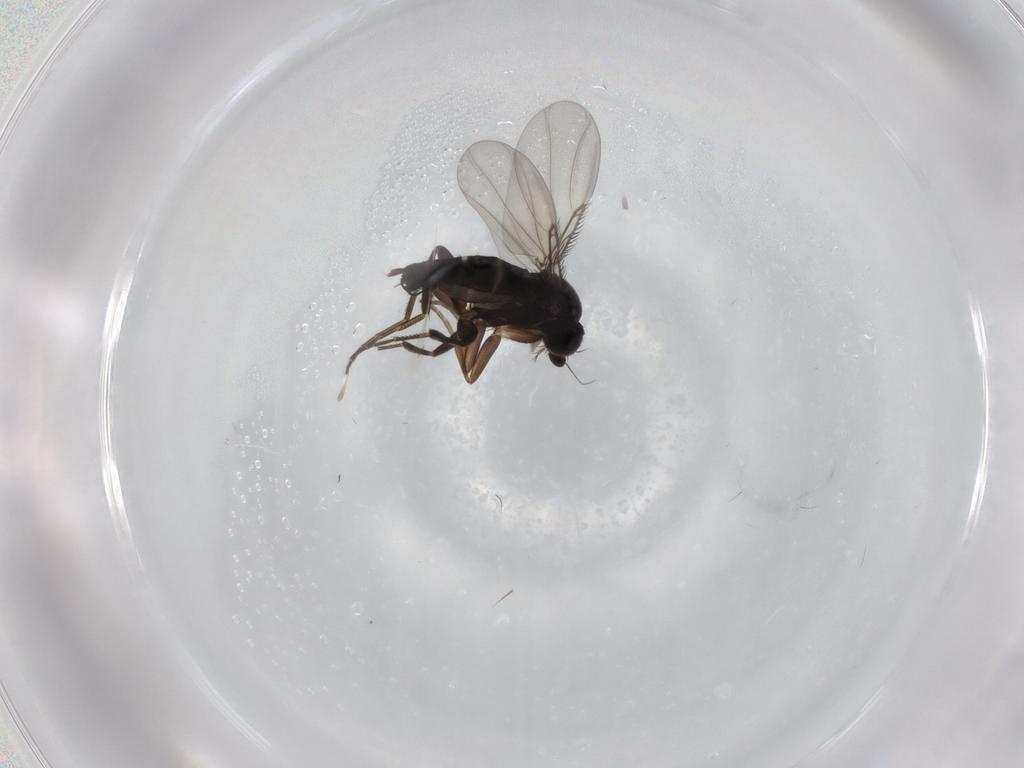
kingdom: Animalia
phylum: Arthropoda
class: Insecta
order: Diptera
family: Phoridae
